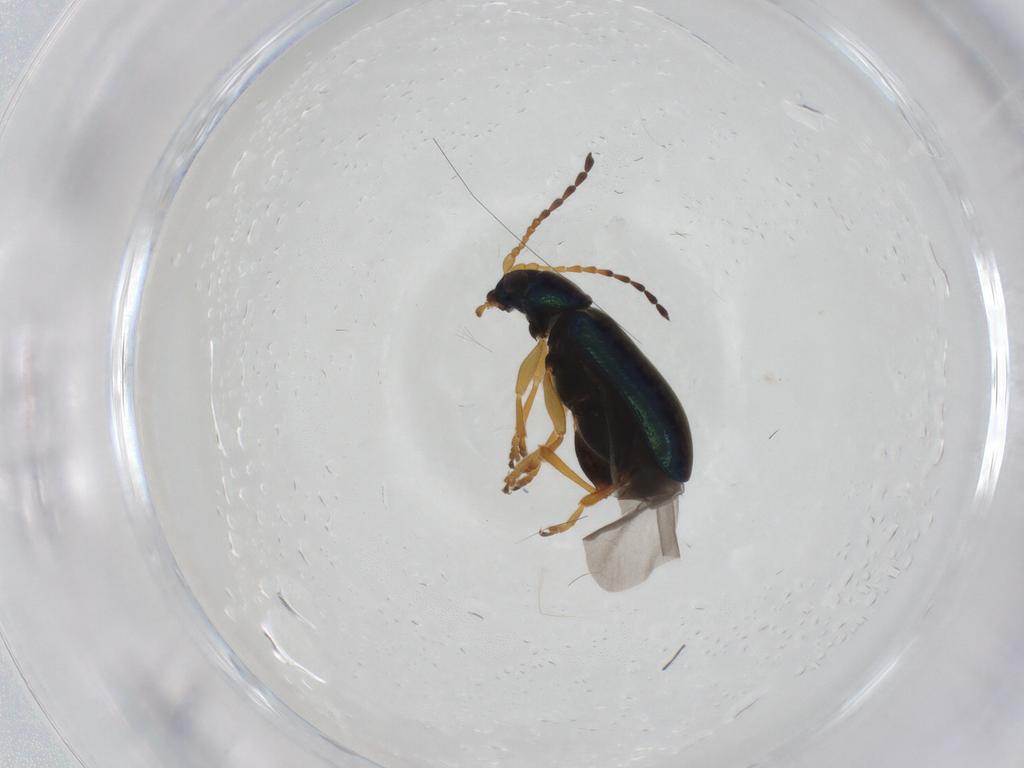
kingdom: Animalia
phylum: Arthropoda
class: Insecta
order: Coleoptera
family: Chrysomelidae
